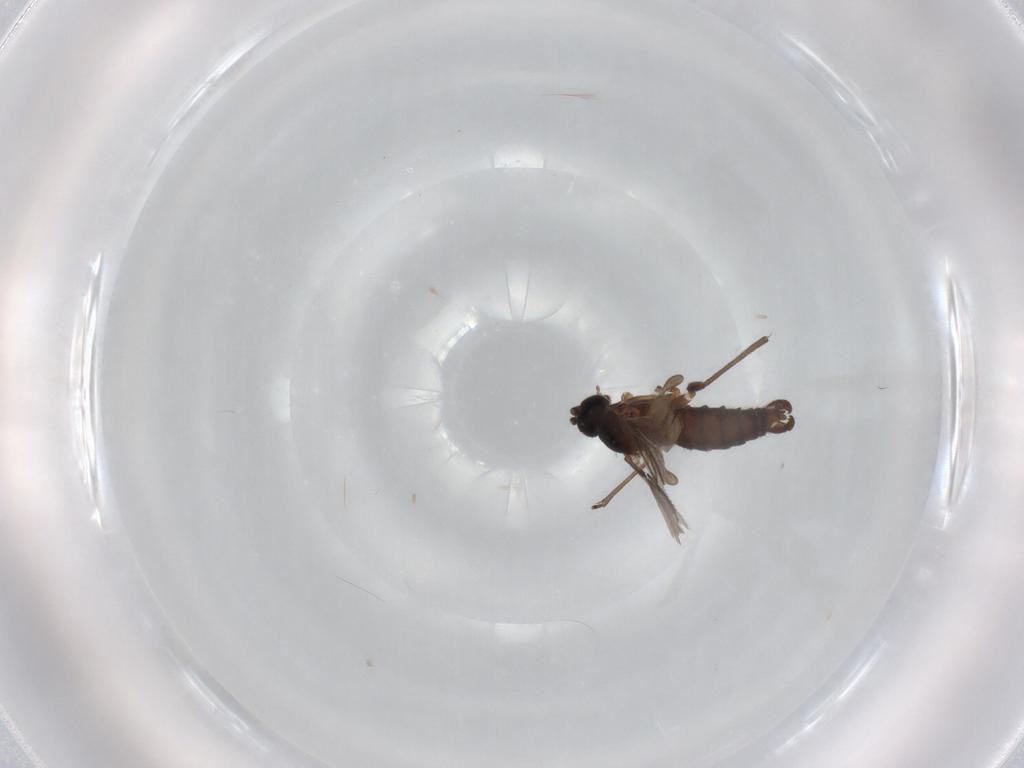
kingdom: Animalia
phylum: Arthropoda
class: Insecta
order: Diptera
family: Sciaridae
